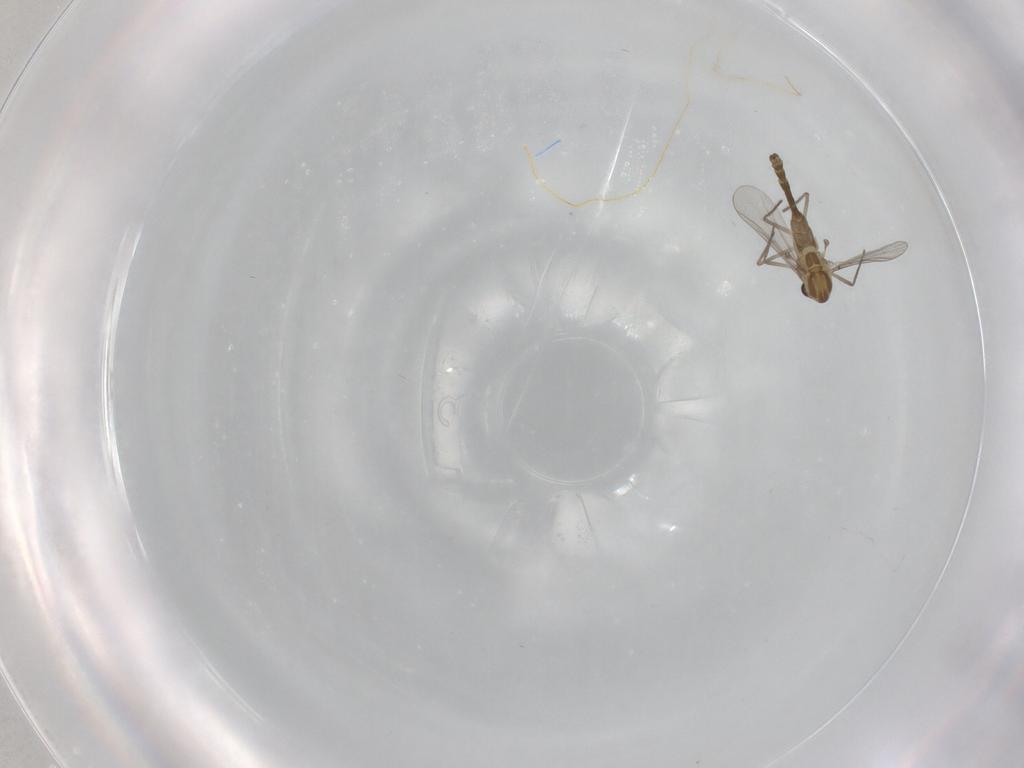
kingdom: Animalia
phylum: Arthropoda
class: Insecta
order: Diptera
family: Chironomidae
